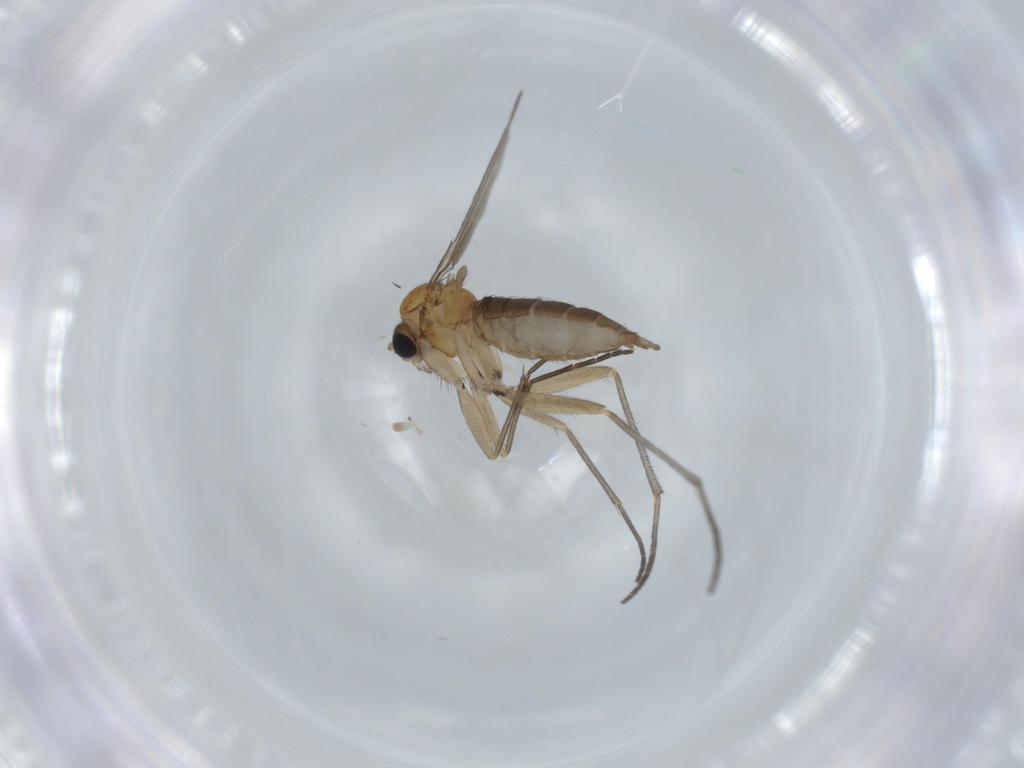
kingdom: Animalia
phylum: Arthropoda
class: Insecta
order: Diptera
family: Sciaridae
